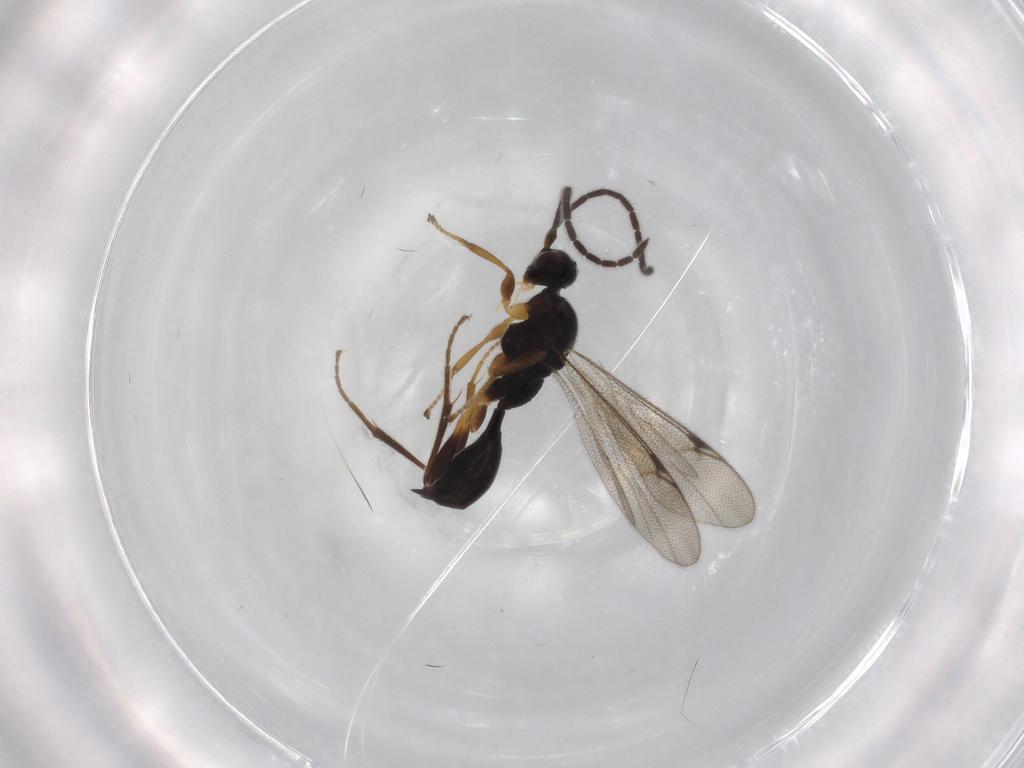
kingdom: Animalia
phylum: Arthropoda
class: Insecta
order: Hymenoptera
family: Proctotrupidae
